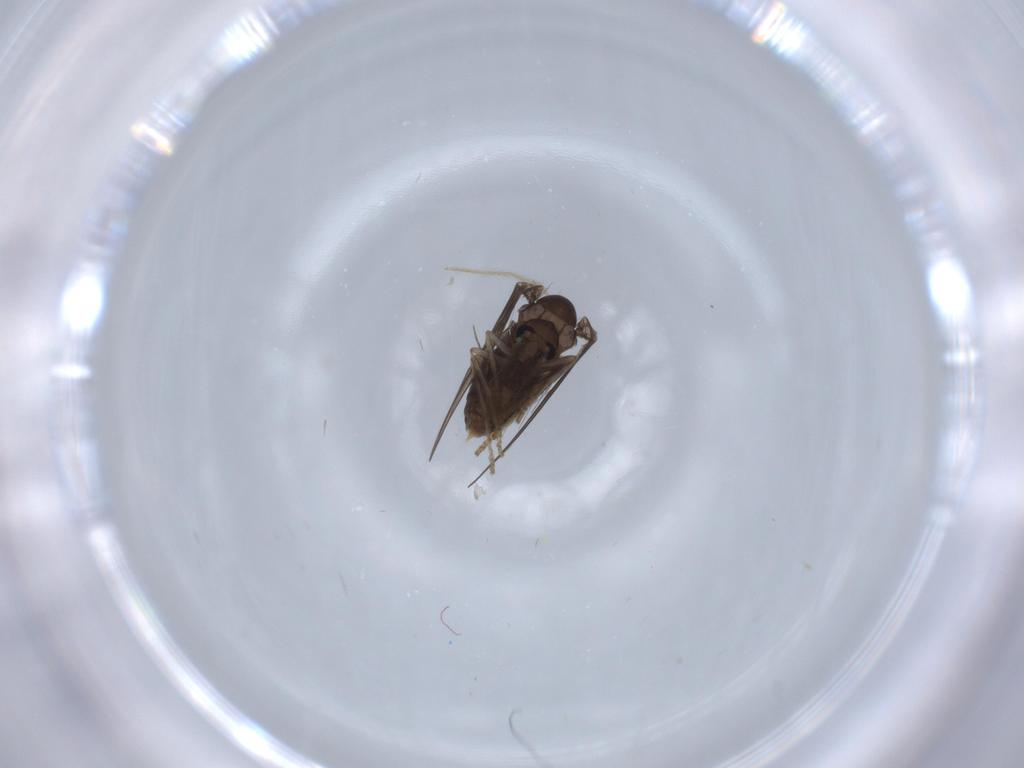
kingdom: Animalia
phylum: Arthropoda
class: Insecta
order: Diptera
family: Psychodidae
